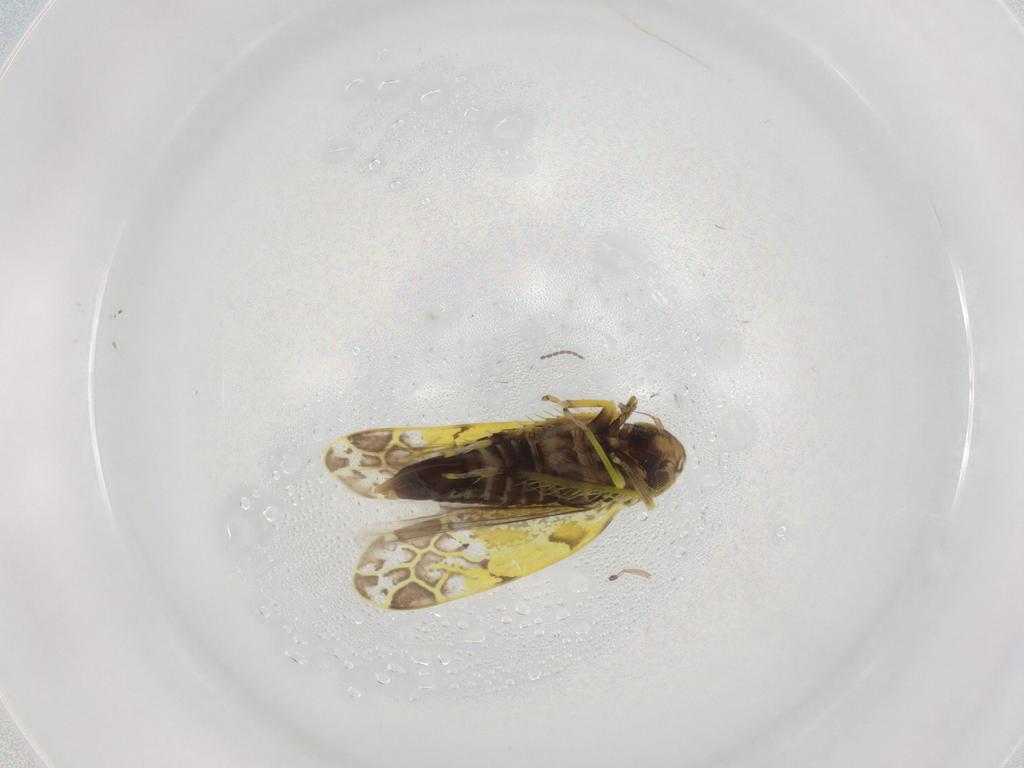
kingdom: Animalia
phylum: Arthropoda
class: Insecta
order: Hemiptera
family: Cicadellidae
